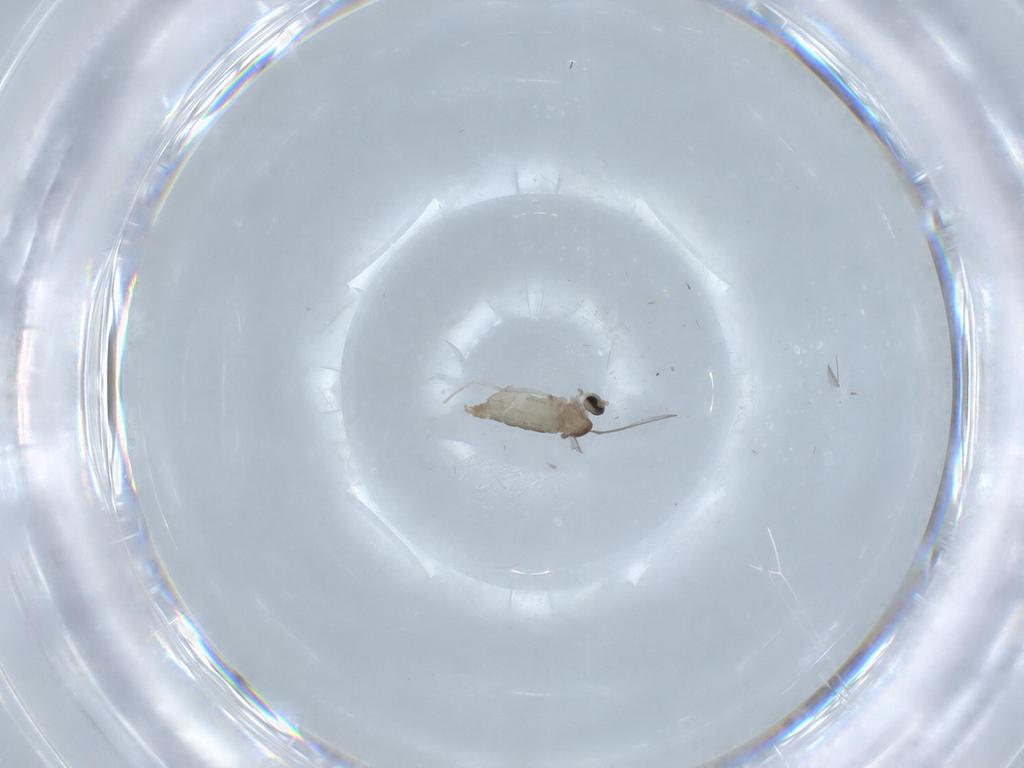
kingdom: Animalia
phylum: Arthropoda
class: Insecta
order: Diptera
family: Cecidomyiidae
